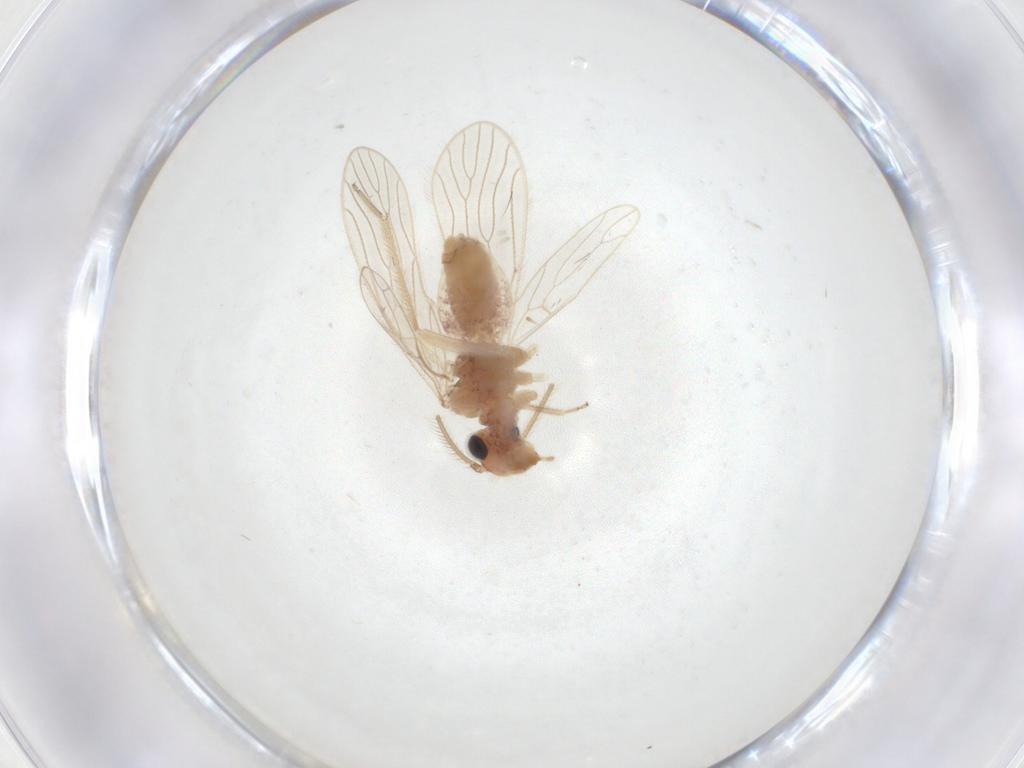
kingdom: Animalia
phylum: Arthropoda
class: Insecta
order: Psocodea
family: Cladiopsocidae
